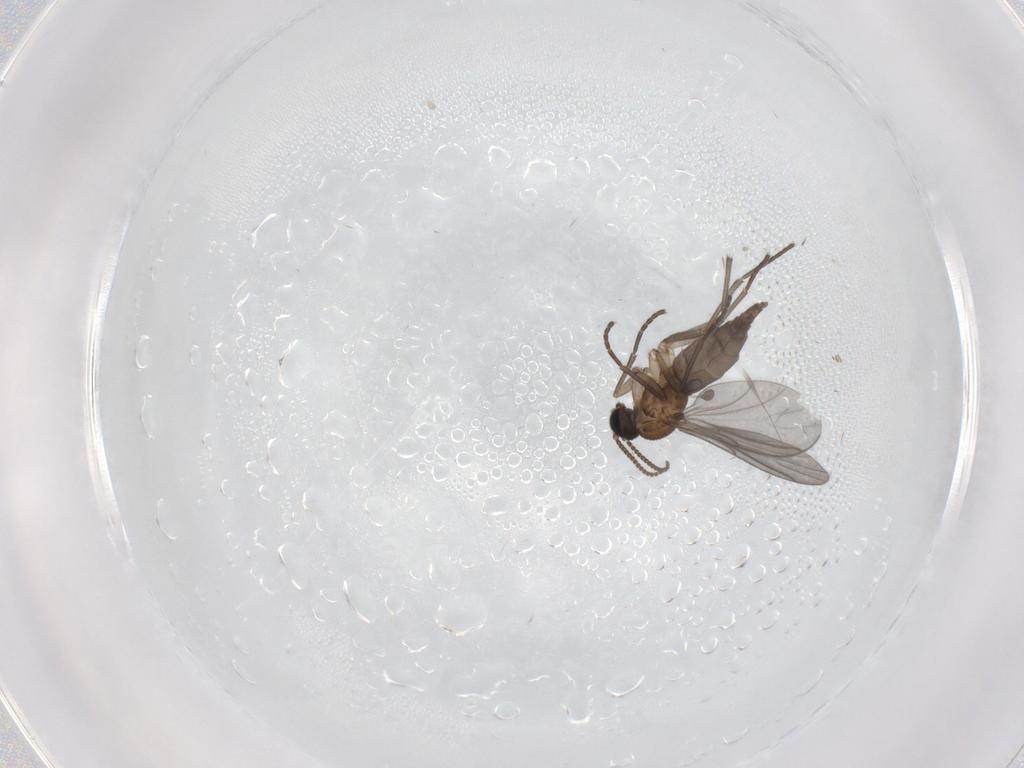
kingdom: Animalia
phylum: Arthropoda
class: Insecta
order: Diptera
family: Sciaridae
